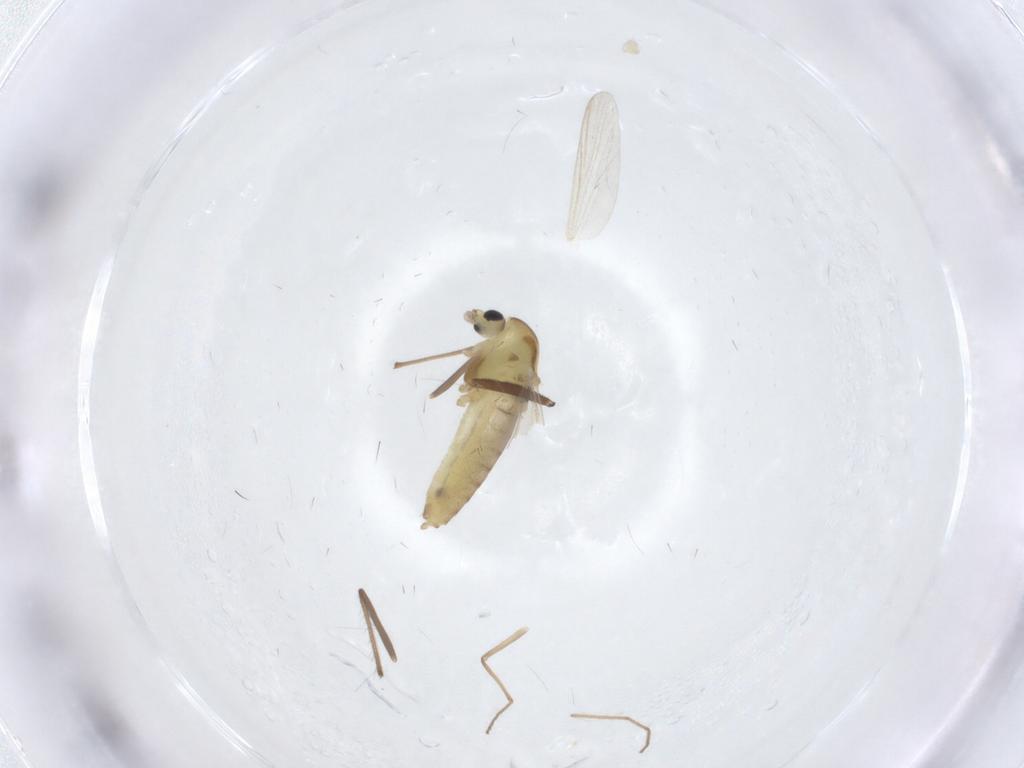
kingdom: Animalia
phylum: Arthropoda
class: Insecta
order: Diptera
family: Chironomidae
